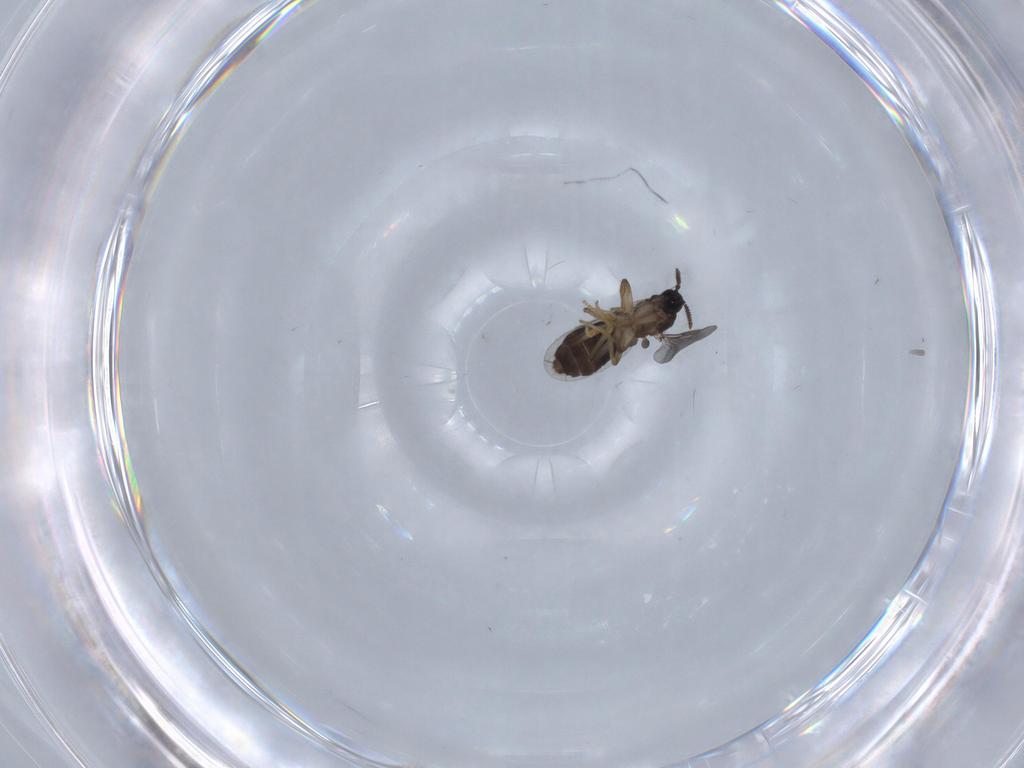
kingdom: Animalia
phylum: Arthropoda
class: Insecta
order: Diptera
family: Scatopsidae
